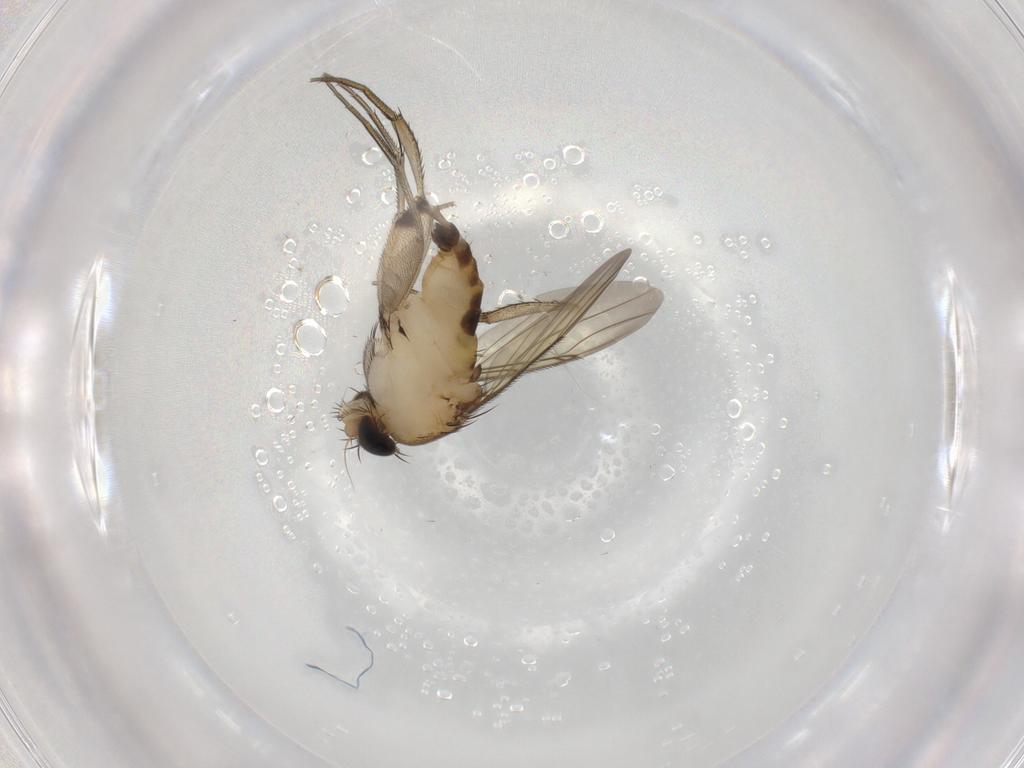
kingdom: Animalia
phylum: Arthropoda
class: Insecta
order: Diptera
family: Phoridae
